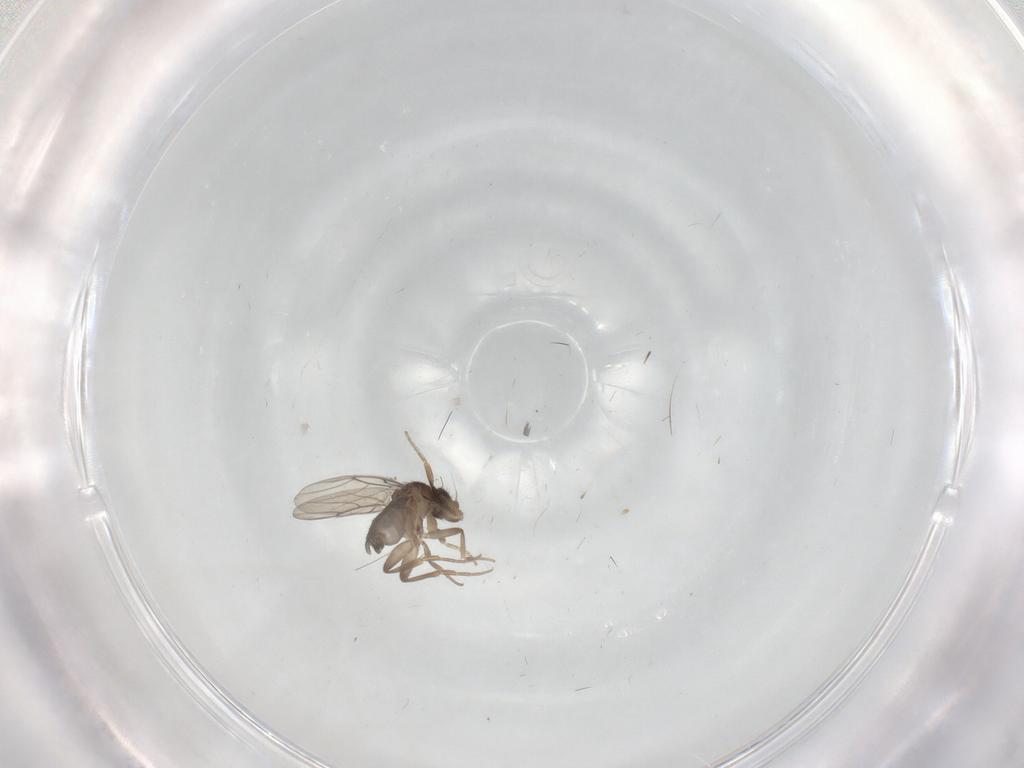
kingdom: Animalia
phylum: Arthropoda
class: Insecta
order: Diptera
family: Phoridae
